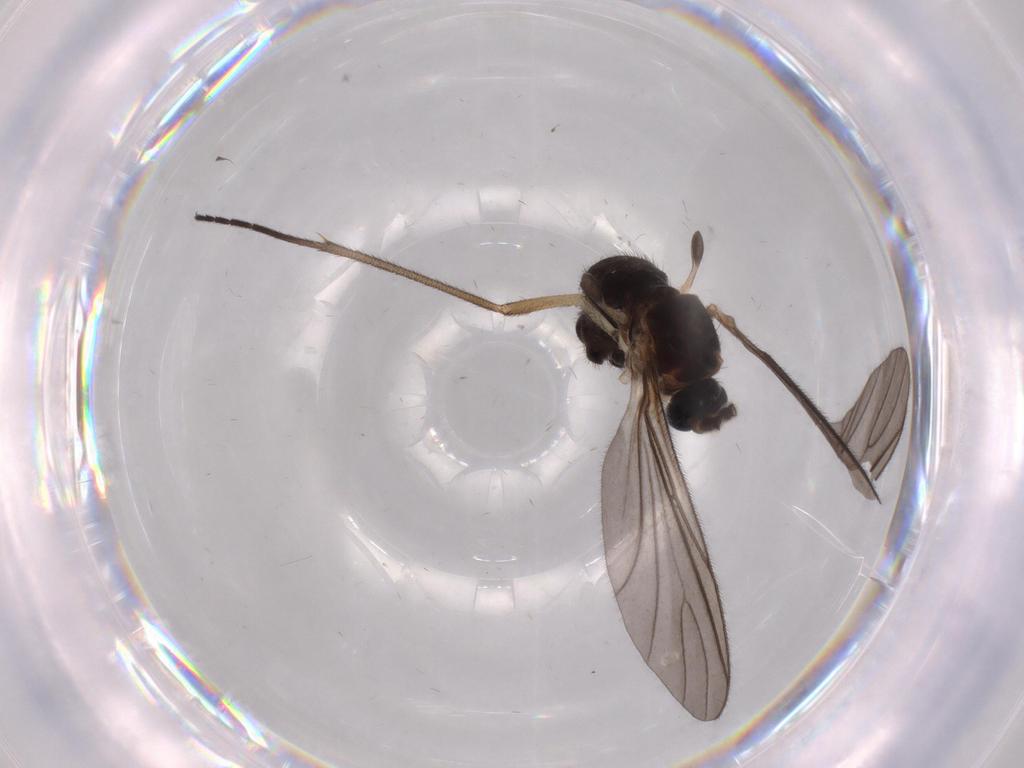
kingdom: Animalia
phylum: Arthropoda
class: Insecta
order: Diptera
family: Sciaridae
